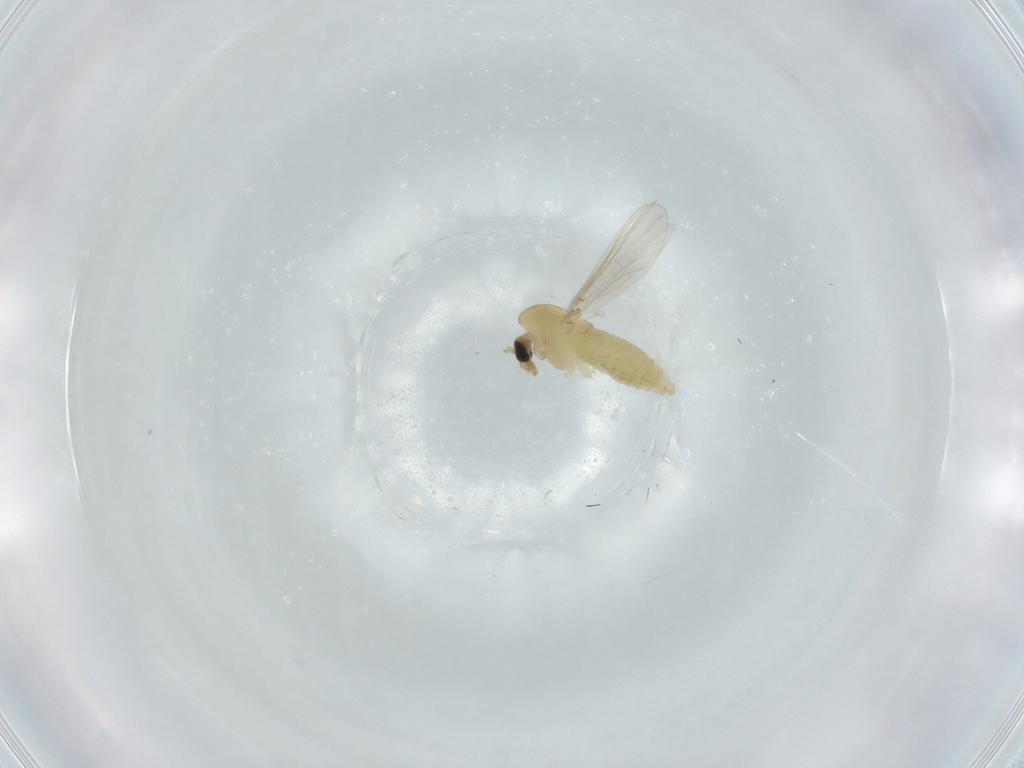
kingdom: Animalia
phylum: Arthropoda
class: Insecta
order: Diptera
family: Chironomidae
